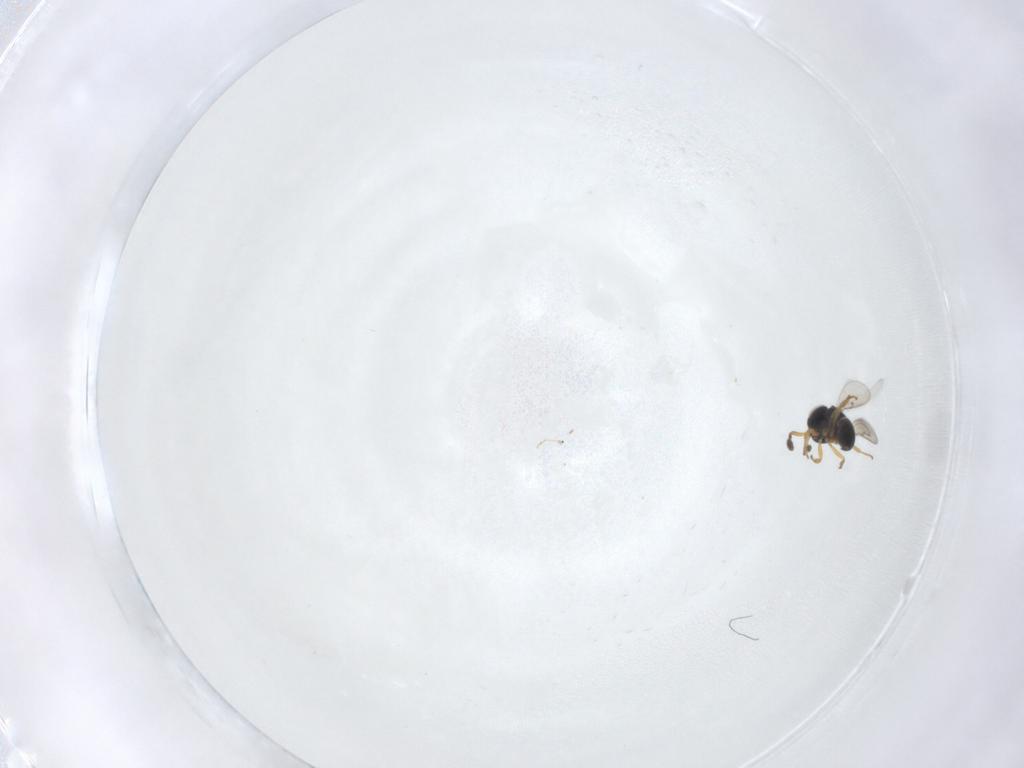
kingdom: Animalia
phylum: Arthropoda
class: Insecta
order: Hymenoptera
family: Scelionidae
